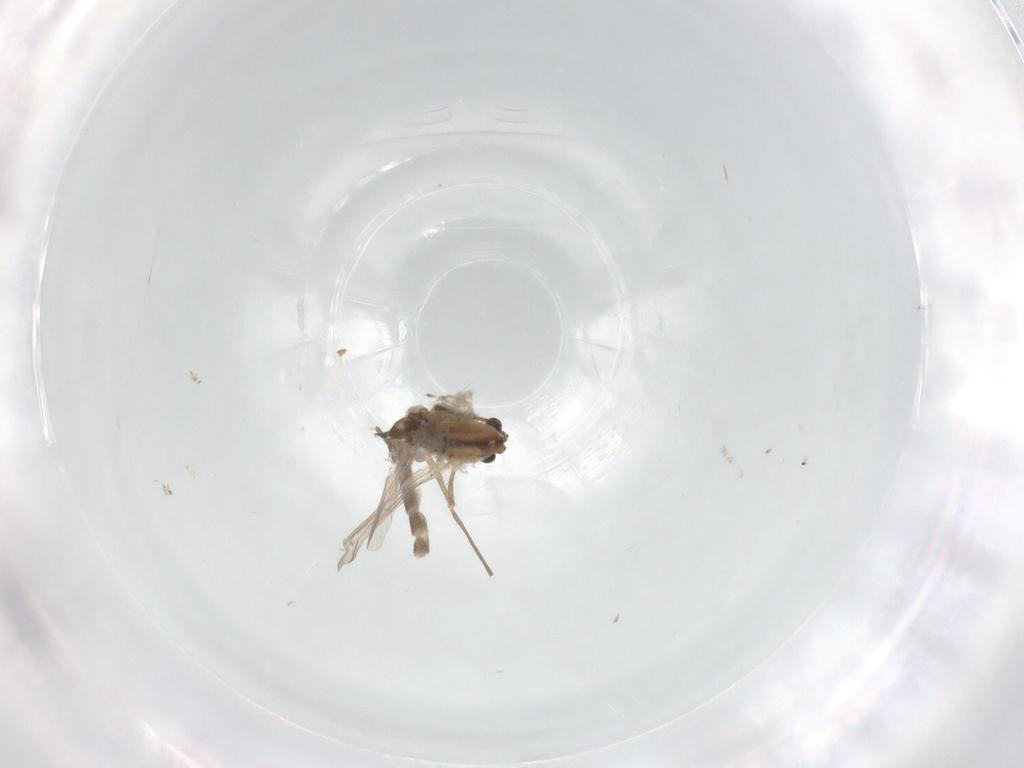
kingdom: Animalia
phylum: Arthropoda
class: Insecta
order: Diptera
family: Chironomidae
